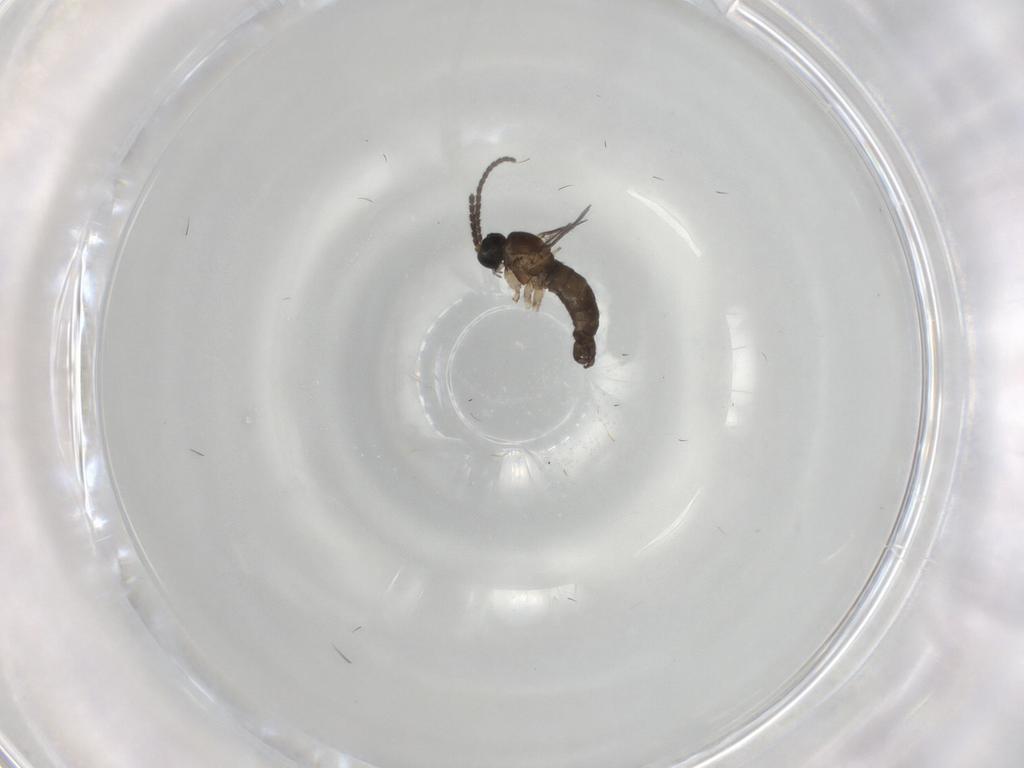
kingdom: Animalia
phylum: Arthropoda
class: Insecta
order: Diptera
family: Sciaridae
